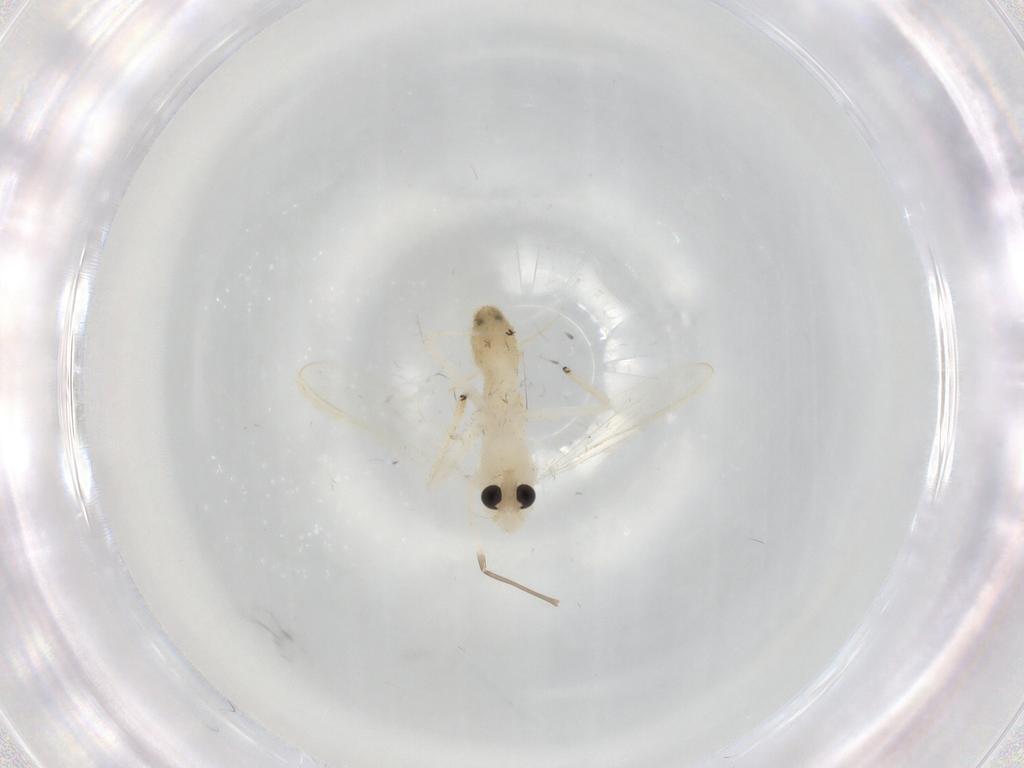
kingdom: Animalia
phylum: Arthropoda
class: Insecta
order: Diptera
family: Chironomidae
